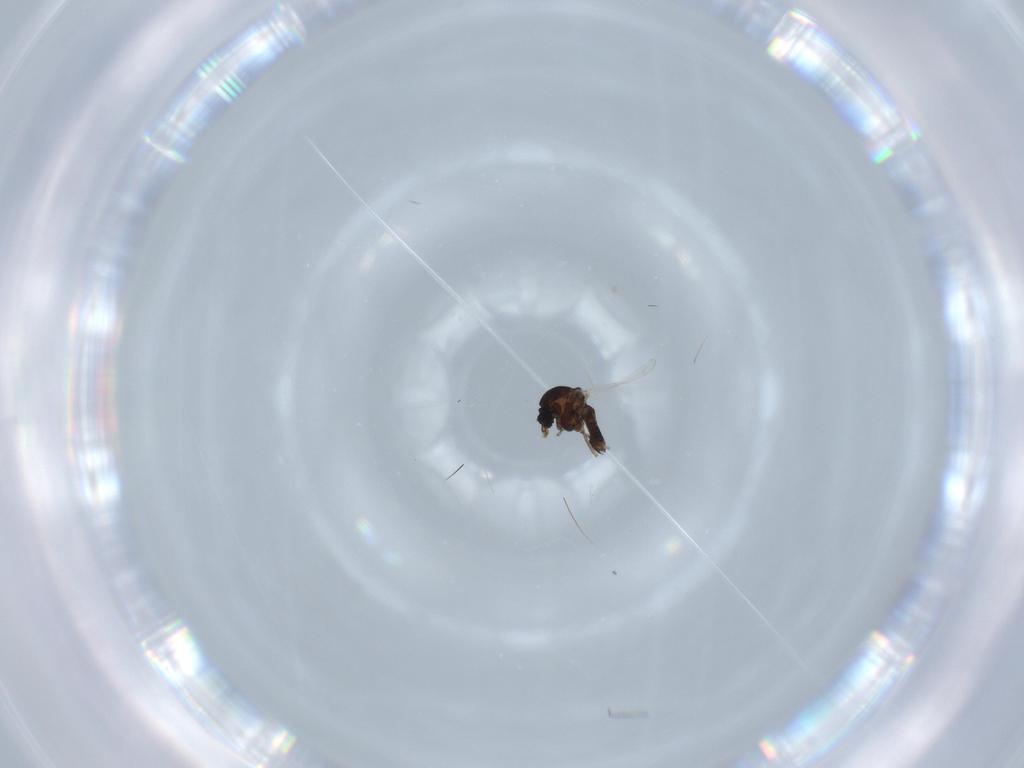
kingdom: Animalia
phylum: Arthropoda
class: Insecta
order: Diptera
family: Chironomidae
